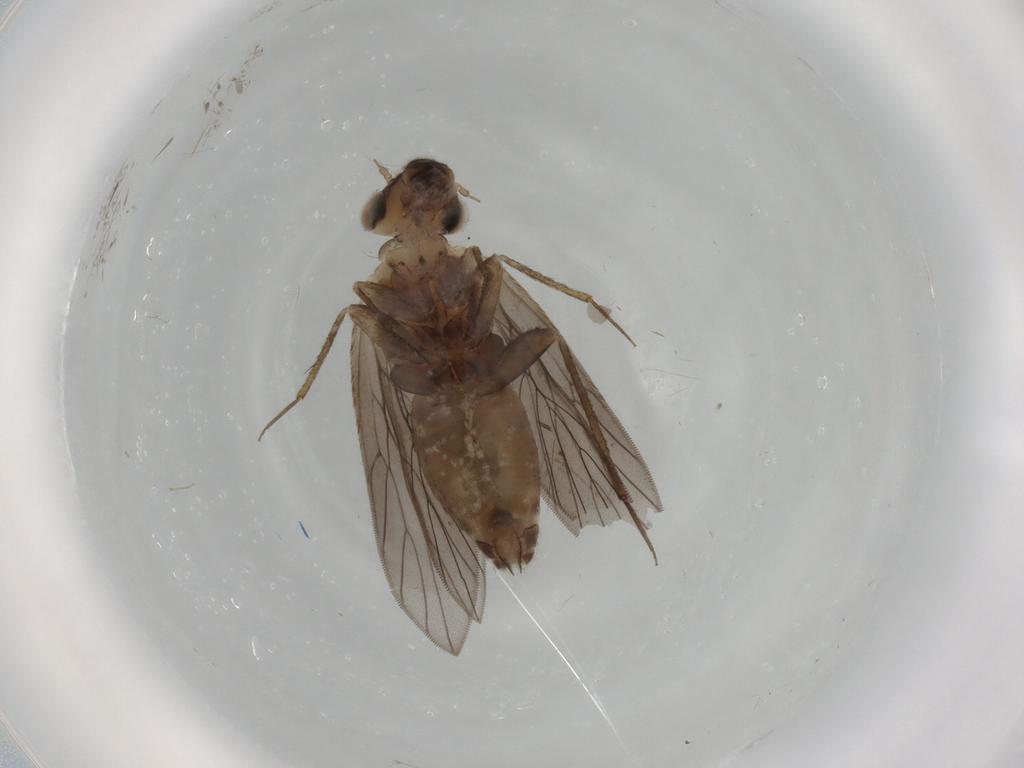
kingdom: Animalia
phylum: Arthropoda
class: Insecta
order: Psocodea
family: Lepidopsocidae
